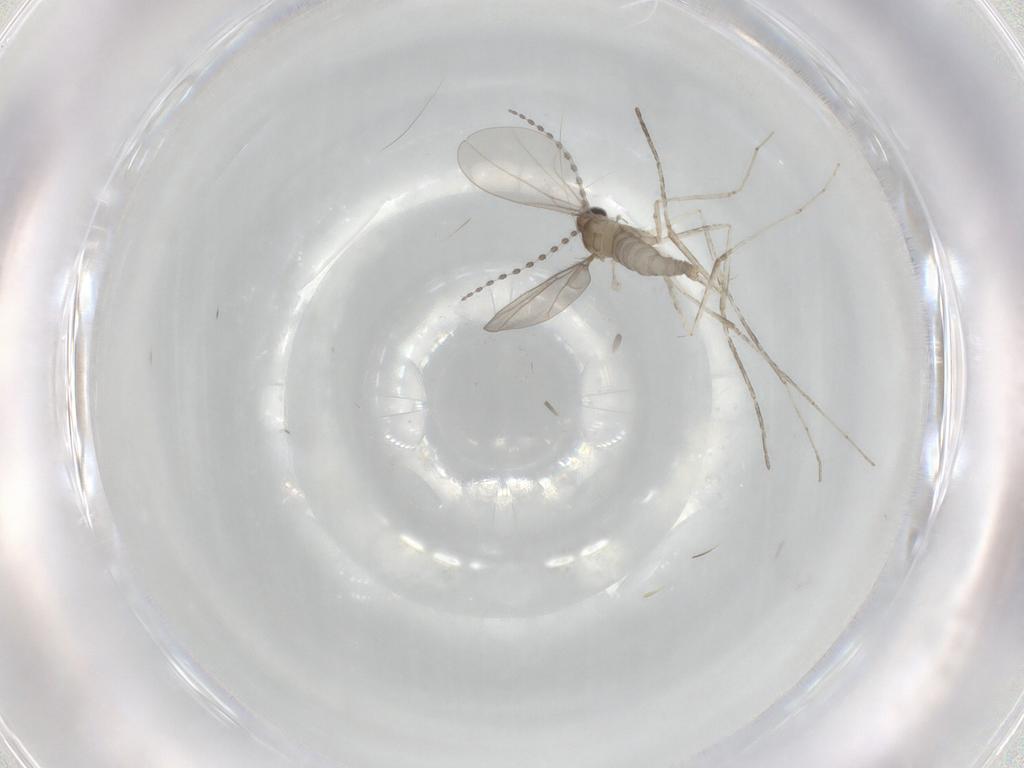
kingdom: Animalia
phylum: Arthropoda
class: Insecta
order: Diptera
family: Cecidomyiidae
